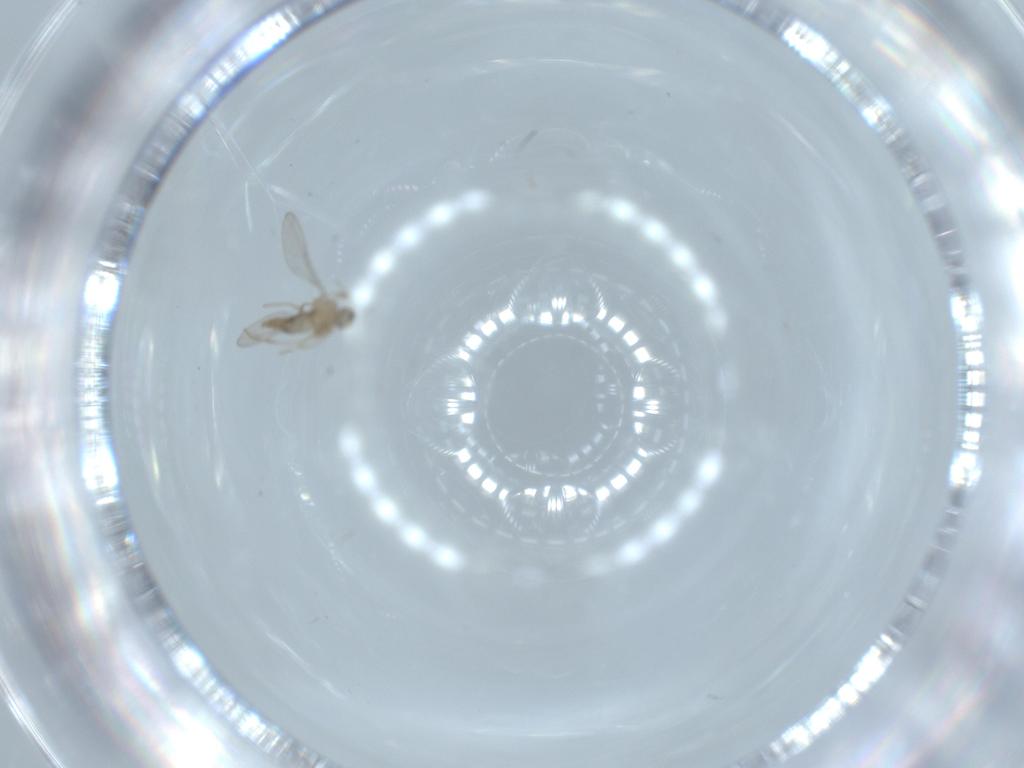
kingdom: Animalia
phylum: Arthropoda
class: Insecta
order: Diptera
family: Cecidomyiidae
